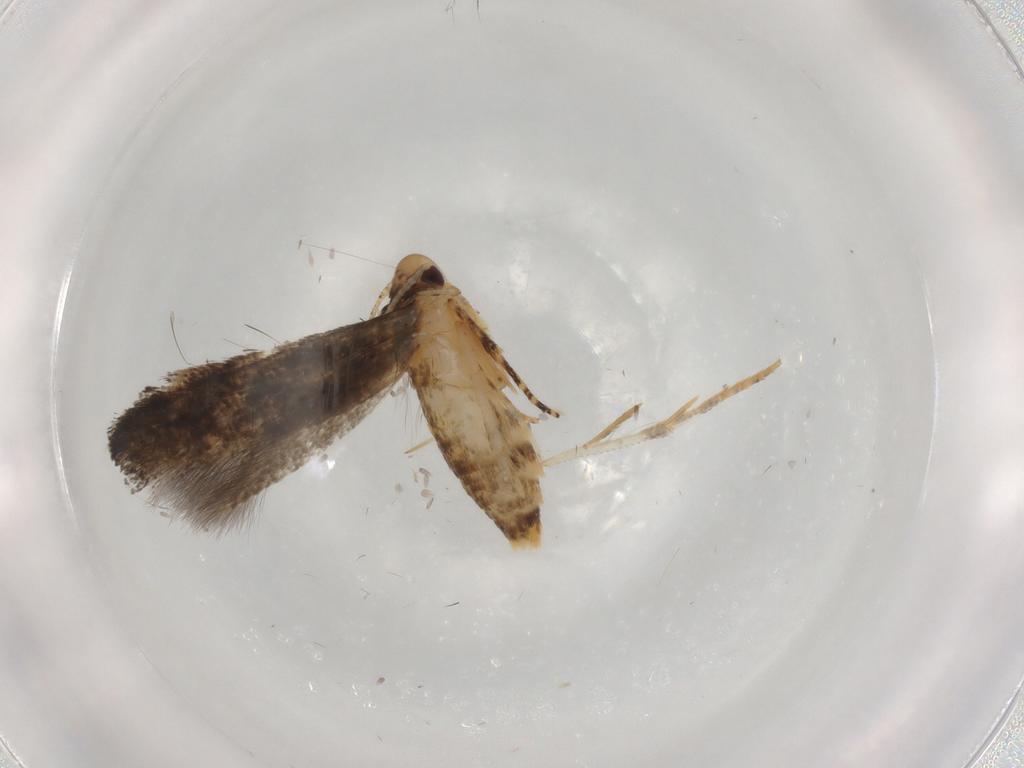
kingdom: Animalia
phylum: Arthropoda
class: Insecta
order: Lepidoptera
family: Momphidae
